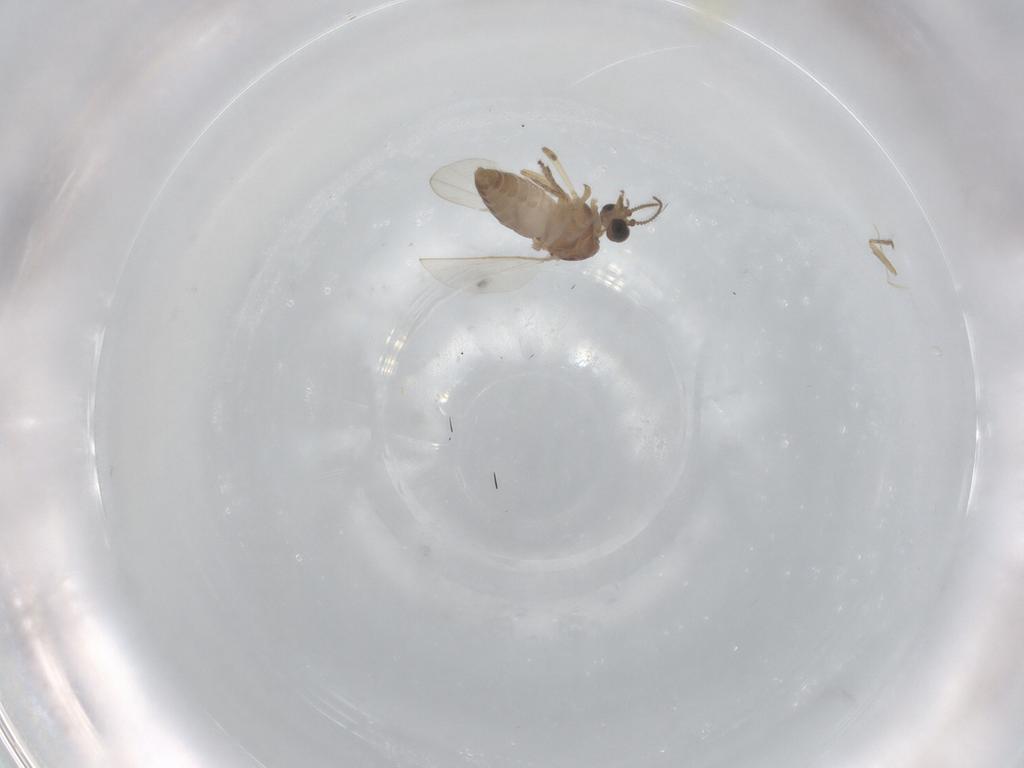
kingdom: Animalia
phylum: Arthropoda
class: Insecta
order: Diptera
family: Ceratopogonidae
